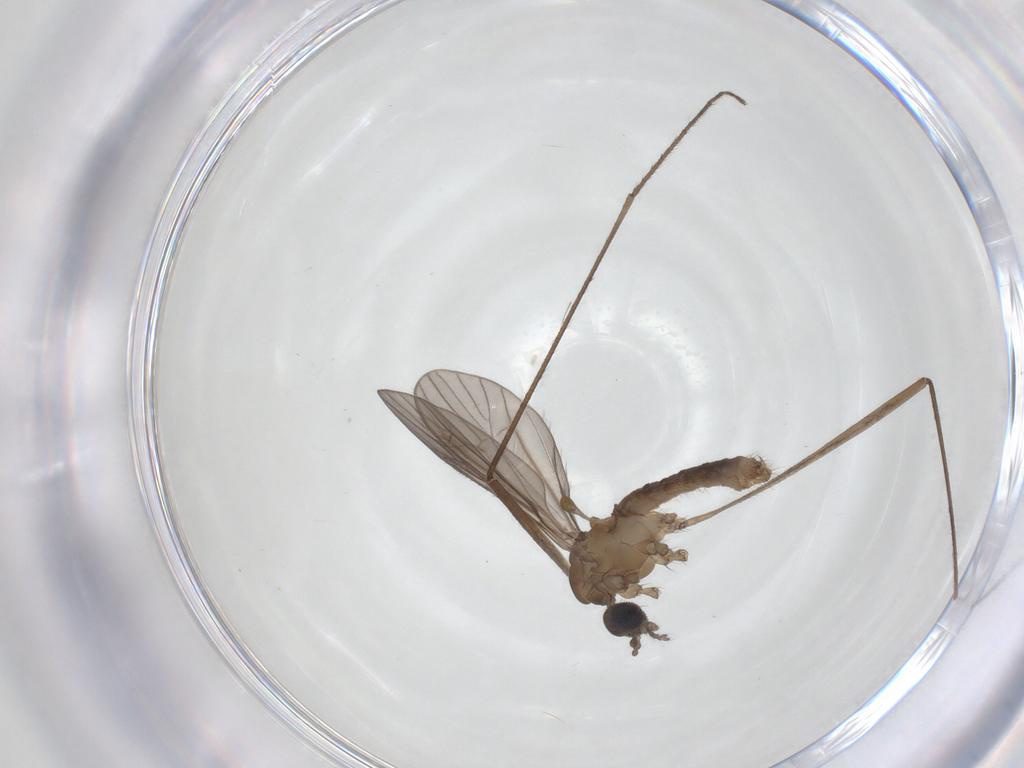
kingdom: Animalia
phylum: Arthropoda
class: Insecta
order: Diptera
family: Limoniidae
